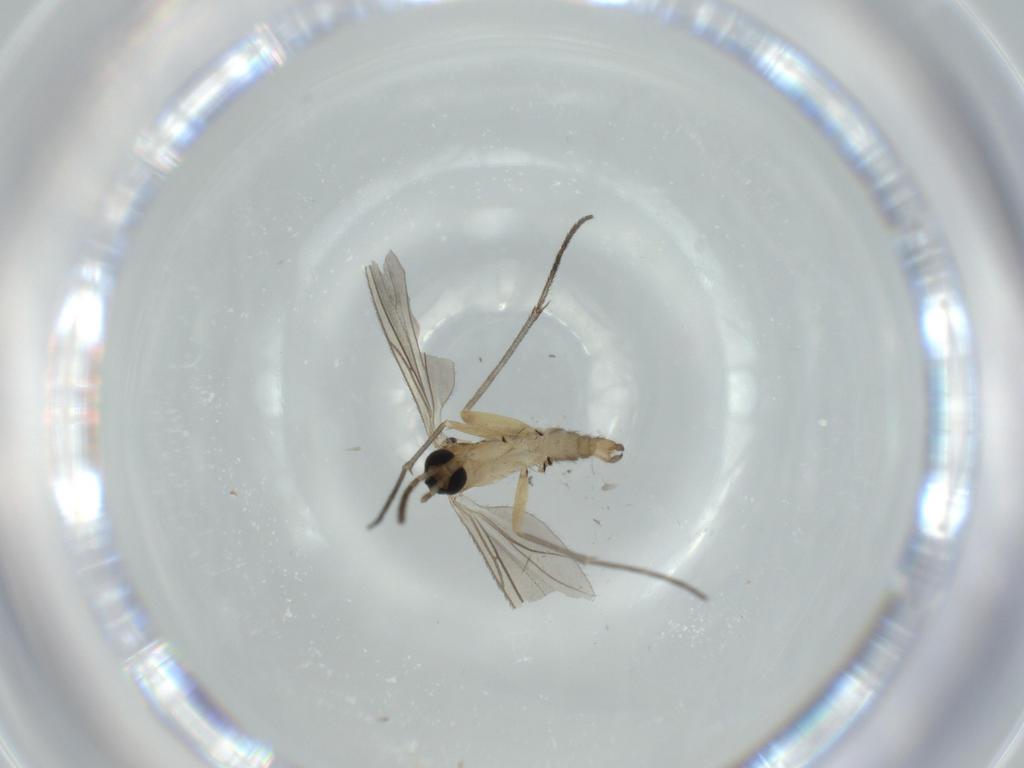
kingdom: Animalia
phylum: Arthropoda
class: Insecta
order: Diptera
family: Sciaridae
